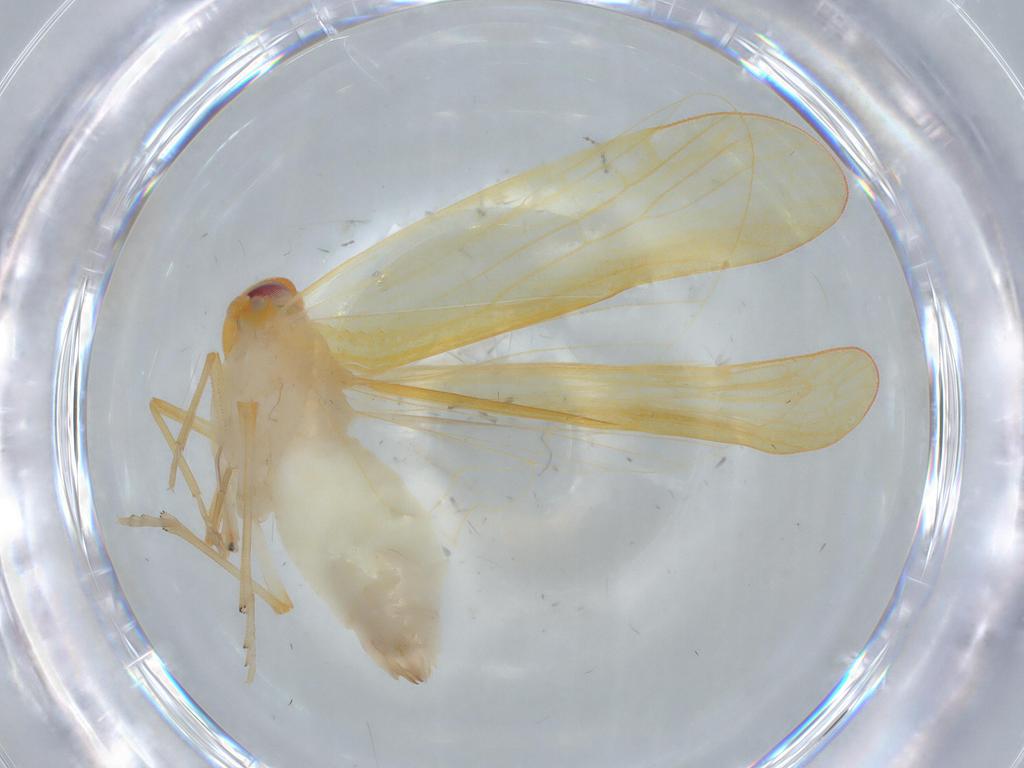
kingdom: Animalia
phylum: Arthropoda
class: Insecta
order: Hemiptera
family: Derbidae
